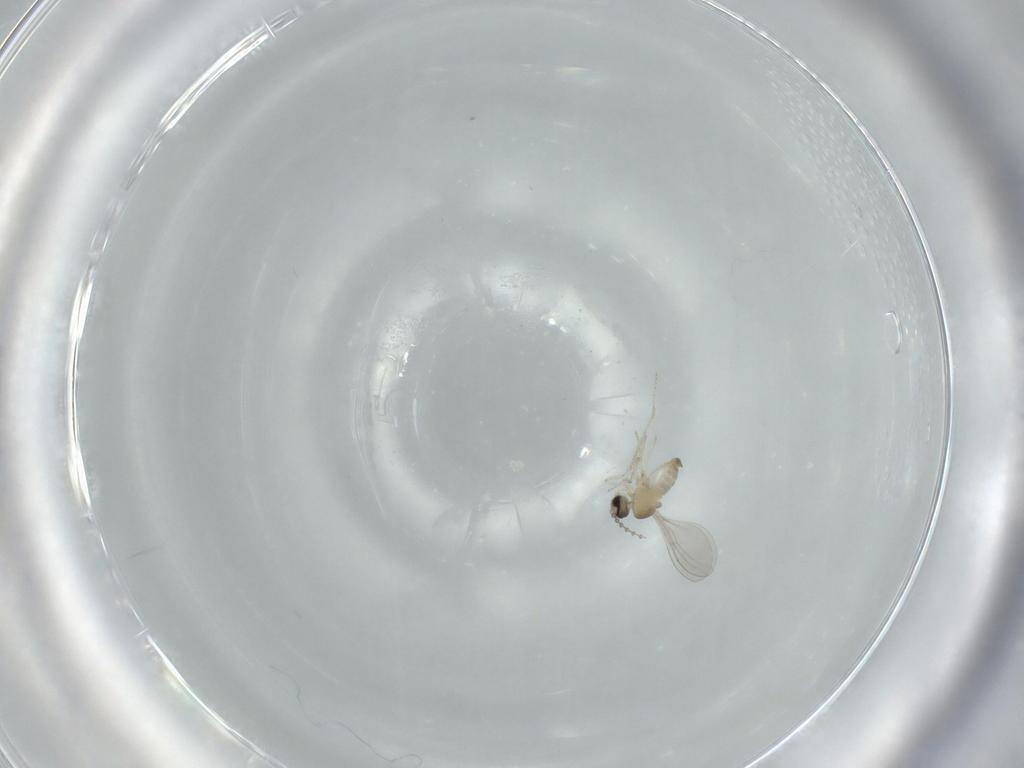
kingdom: Animalia
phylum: Arthropoda
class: Insecta
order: Diptera
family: Cecidomyiidae
